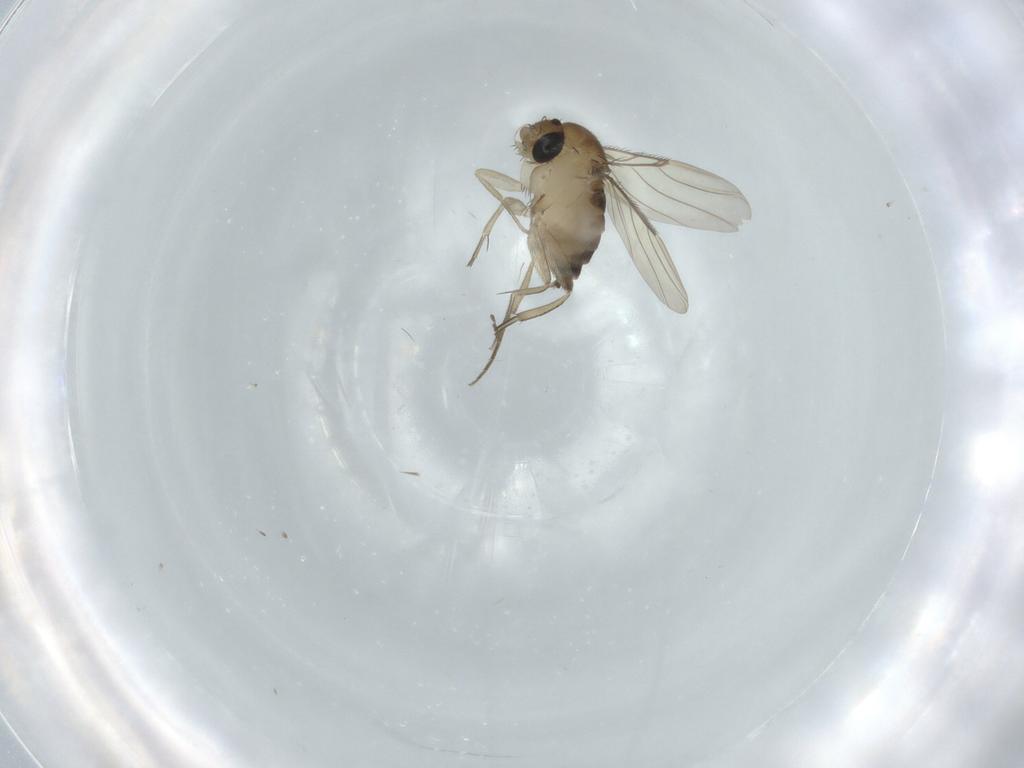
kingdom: Animalia
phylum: Arthropoda
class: Insecta
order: Diptera
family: Phoridae
